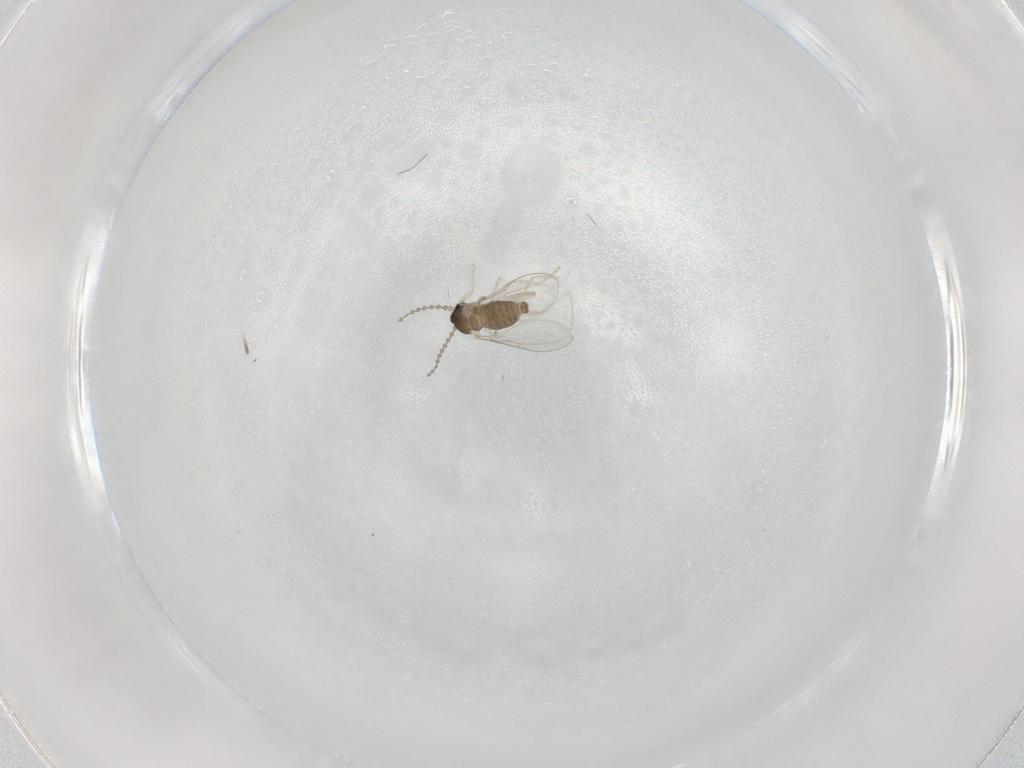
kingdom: Animalia
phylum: Arthropoda
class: Insecta
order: Diptera
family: Cecidomyiidae
